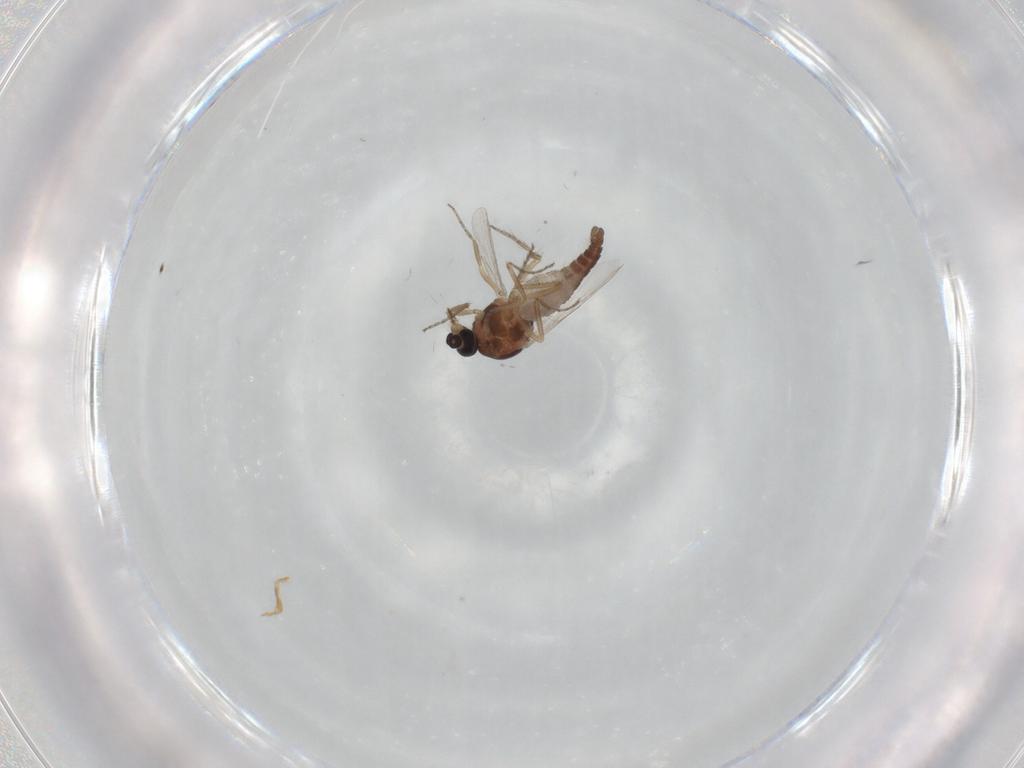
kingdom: Animalia
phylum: Arthropoda
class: Insecta
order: Diptera
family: Ceratopogonidae
